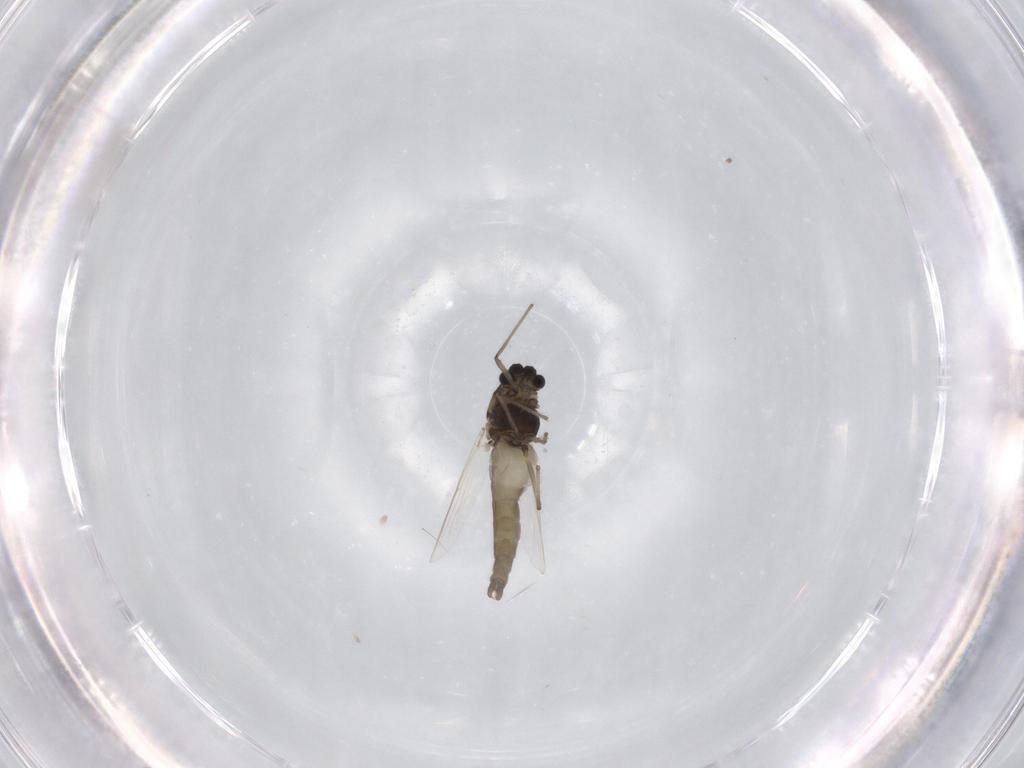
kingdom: Animalia
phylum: Arthropoda
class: Insecta
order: Diptera
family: Chironomidae
